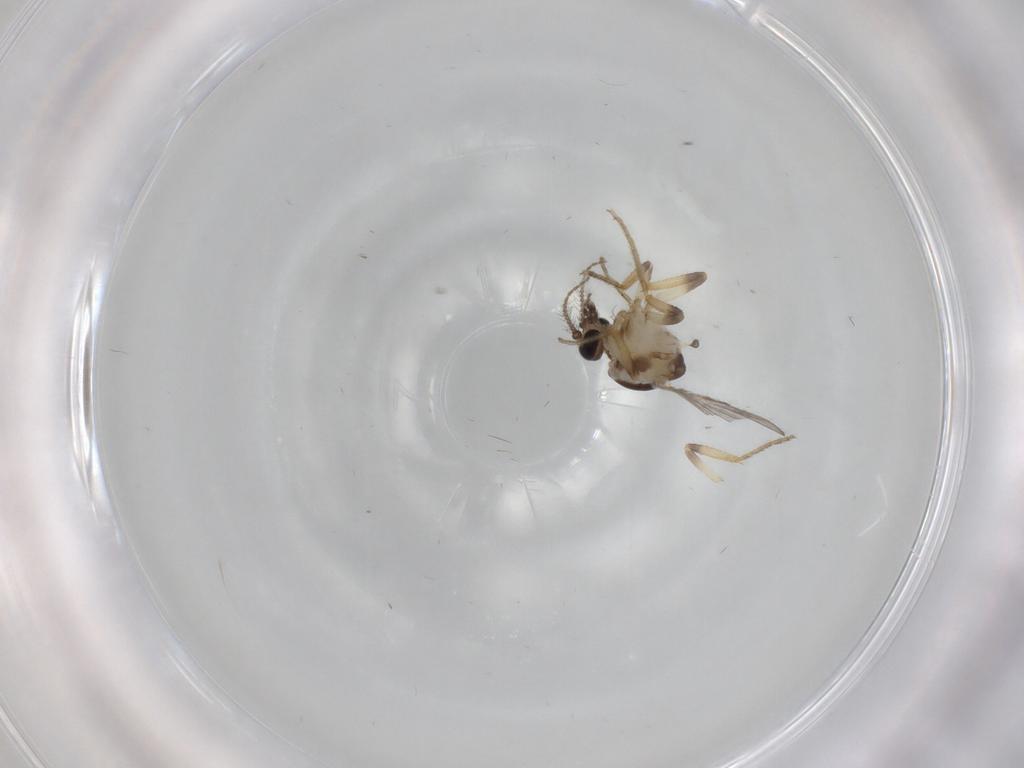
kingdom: Animalia
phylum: Arthropoda
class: Insecta
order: Diptera
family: Ceratopogonidae
